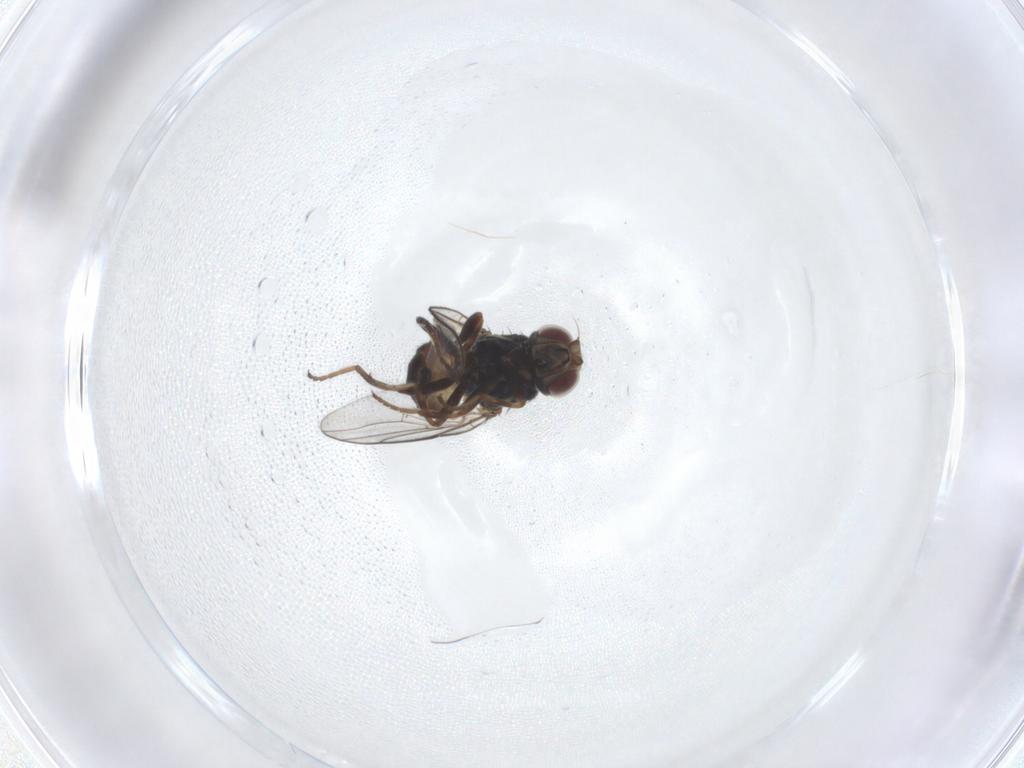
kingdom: Animalia
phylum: Arthropoda
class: Insecta
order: Diptera
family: Chloropidae
